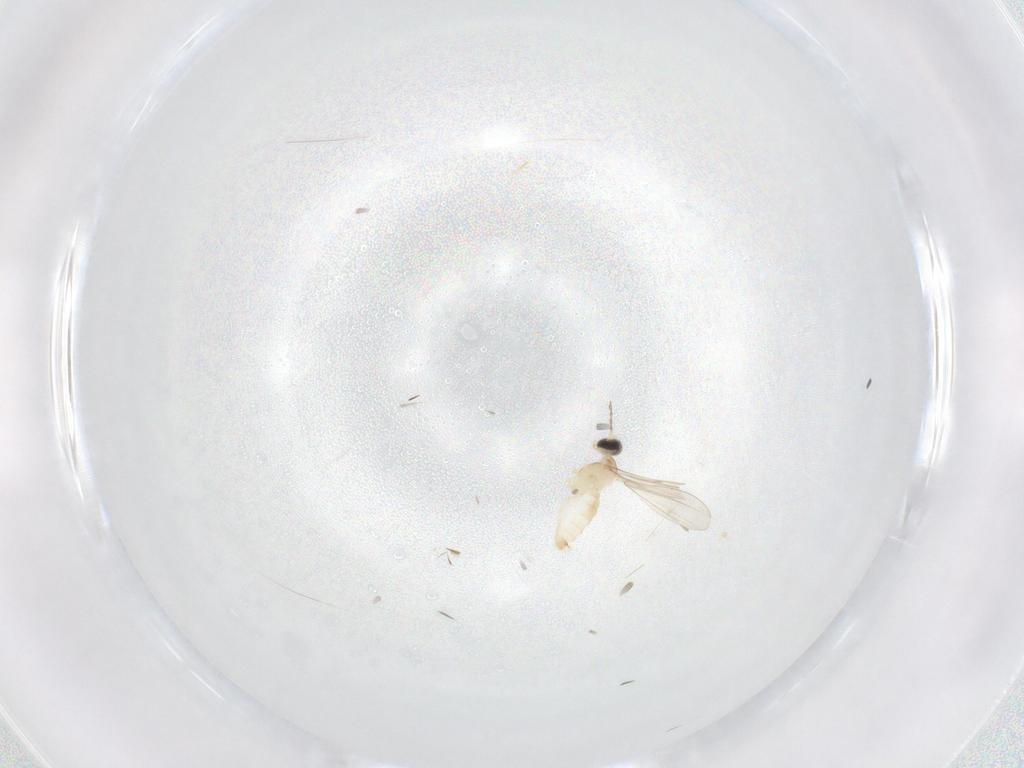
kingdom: Animalia
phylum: Arthropoda
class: Insecta
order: Diptera
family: Cecidomyiidae
